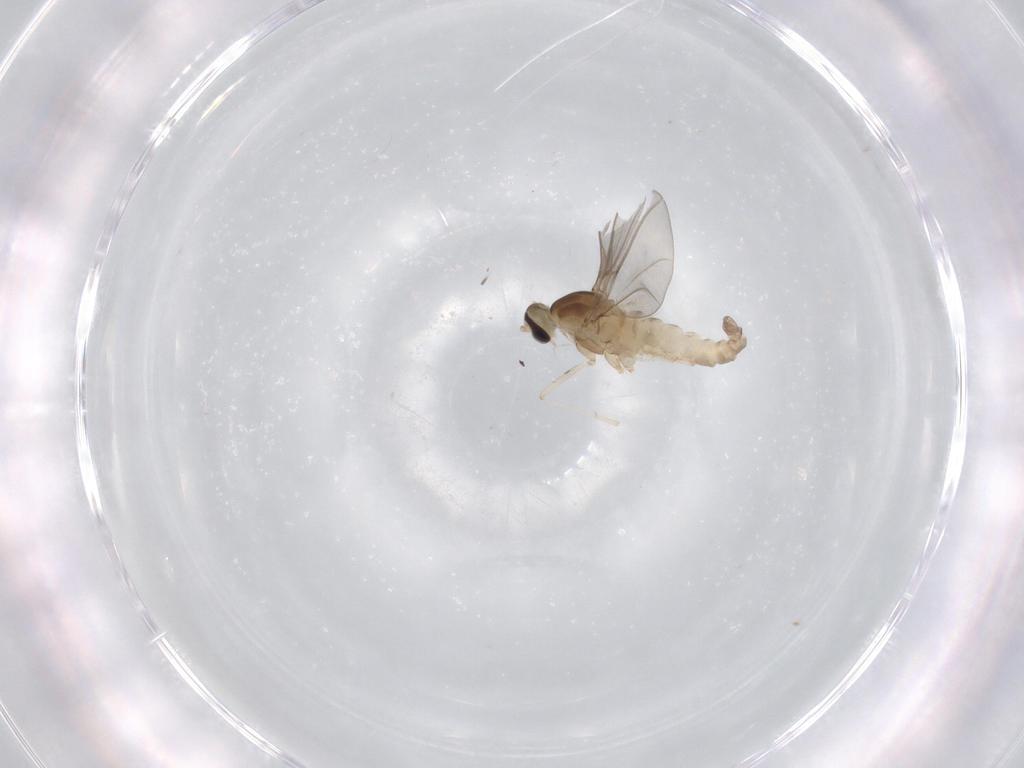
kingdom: Animalia
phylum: Arthropoda
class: Insecta
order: Diptera
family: Cecidomyiidae
